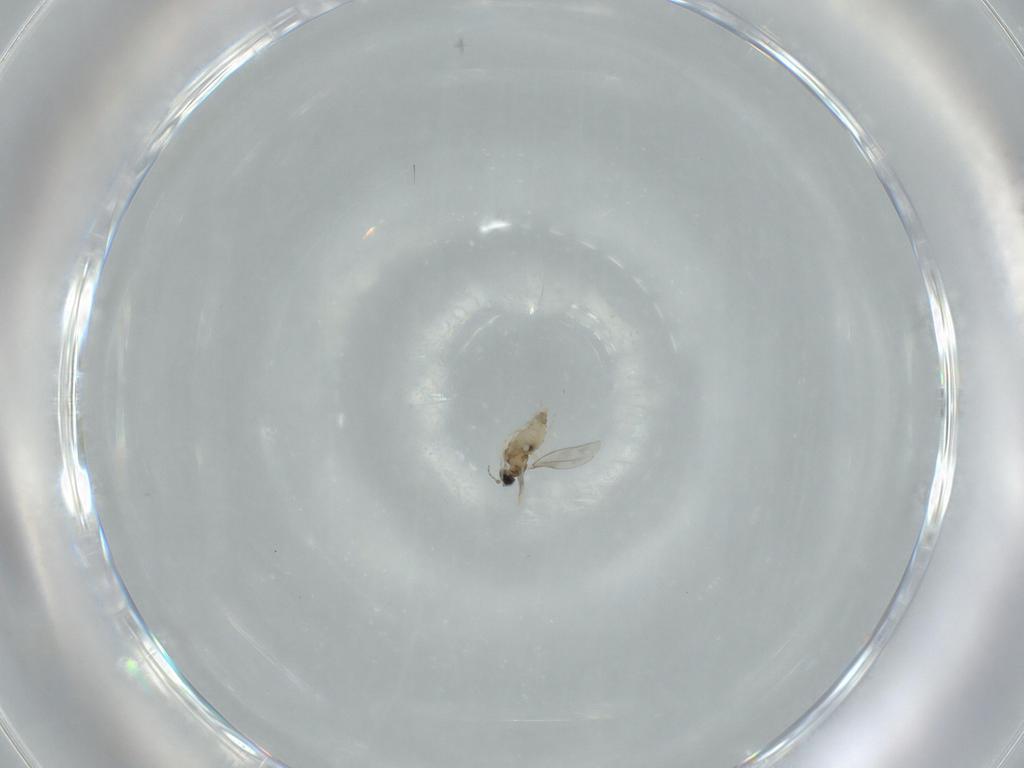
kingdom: Animalia
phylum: Arthropoda
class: Insecta
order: Diptera
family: Cecidomyiidae
